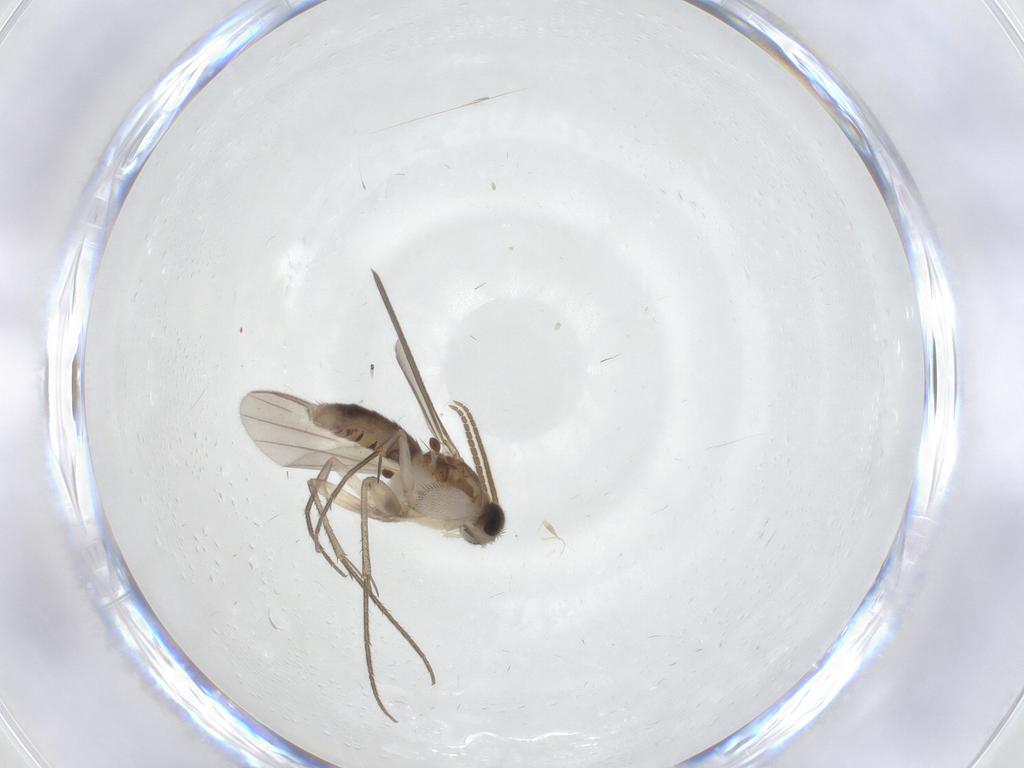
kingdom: Animalia
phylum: Arthropoda
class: Insecta
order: Diptera
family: Mycetophilidae
